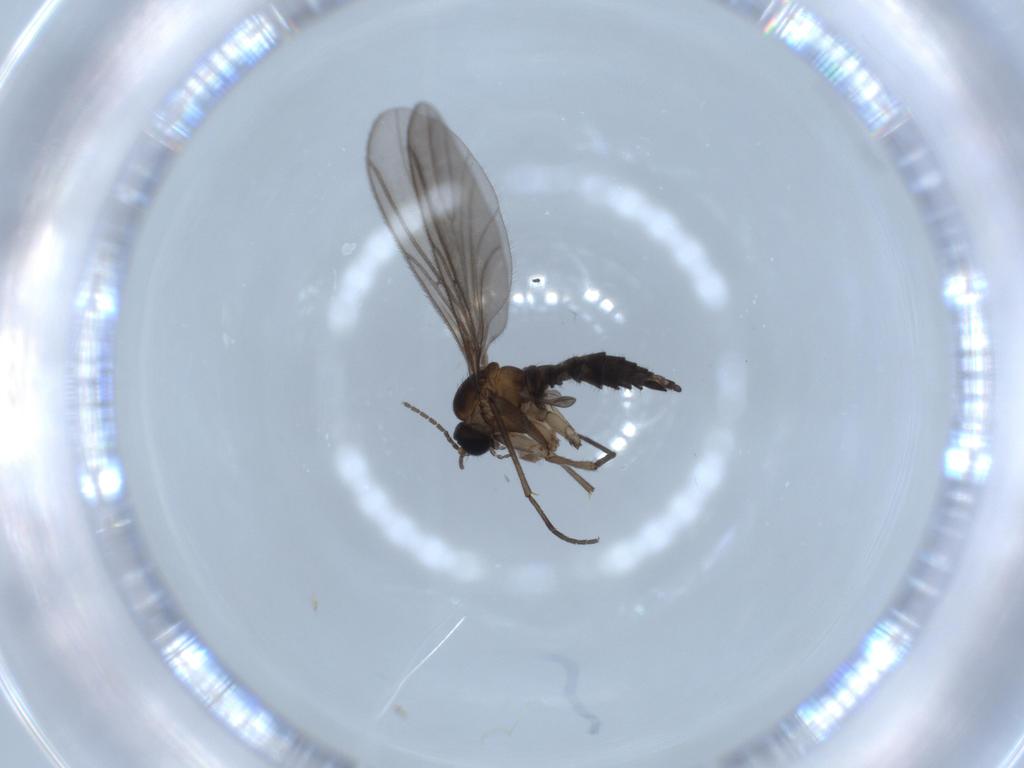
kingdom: Animalia
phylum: Arthropoda
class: Insecta
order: Diptera
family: Sciaridae
